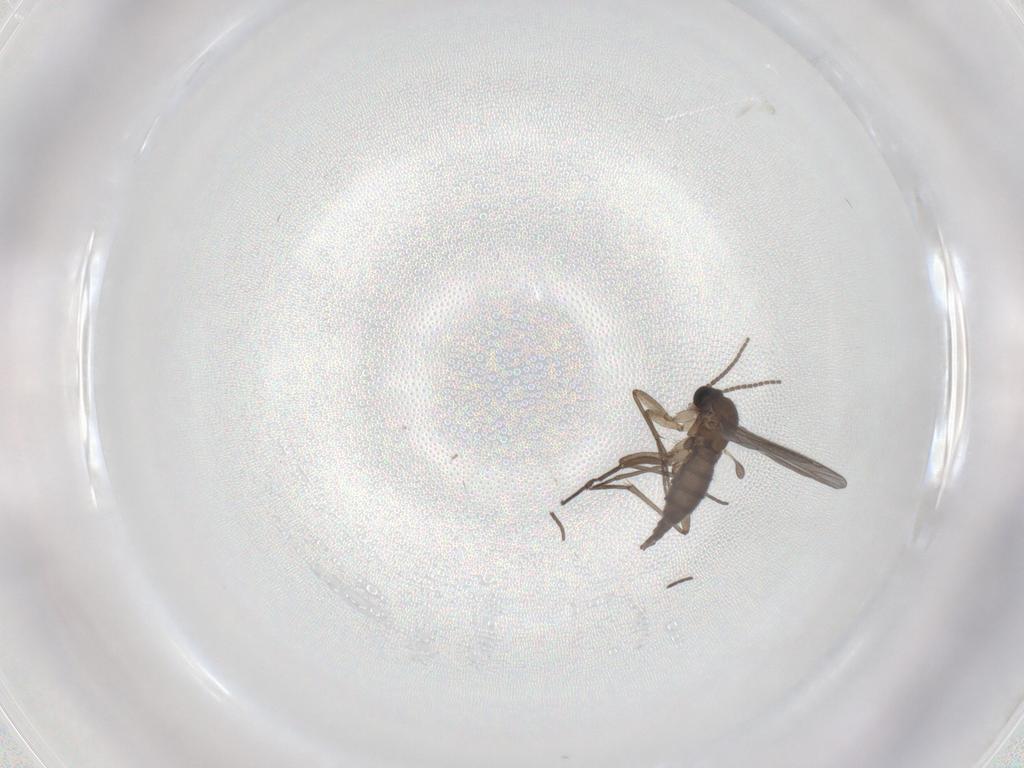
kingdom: Animalia
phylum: Arthropoda
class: Insecta
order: Diptera
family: Sciaridae
